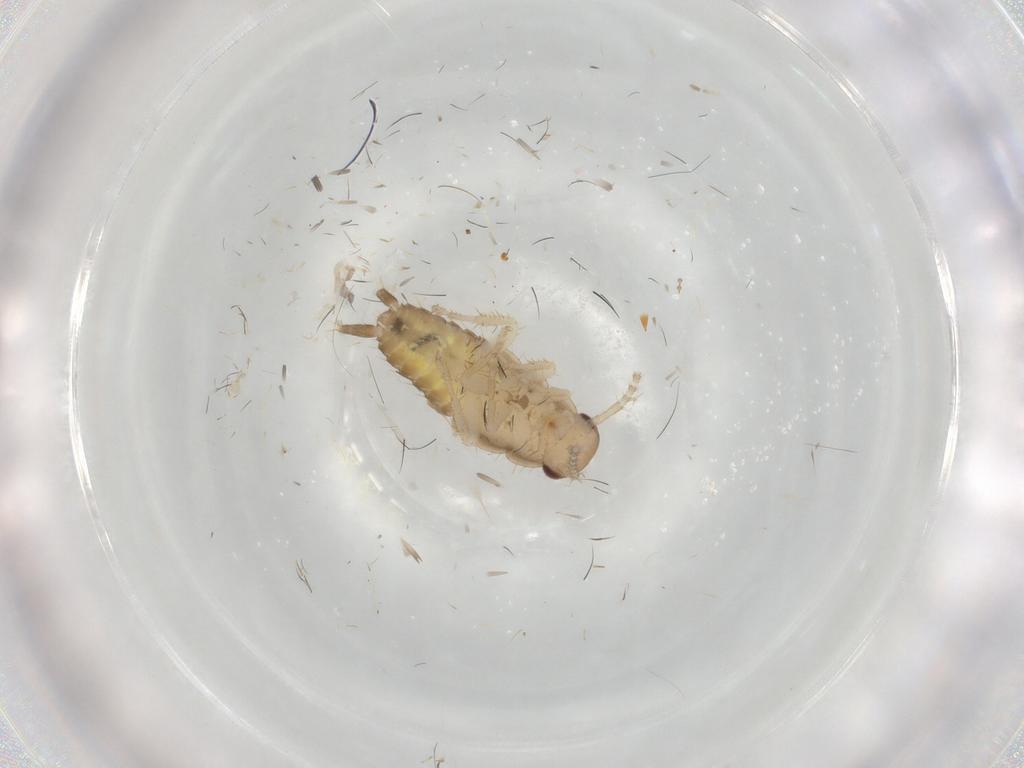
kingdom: Animalia
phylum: Arthropoda
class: Insecta
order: Blattodea
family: Ectobiidae
